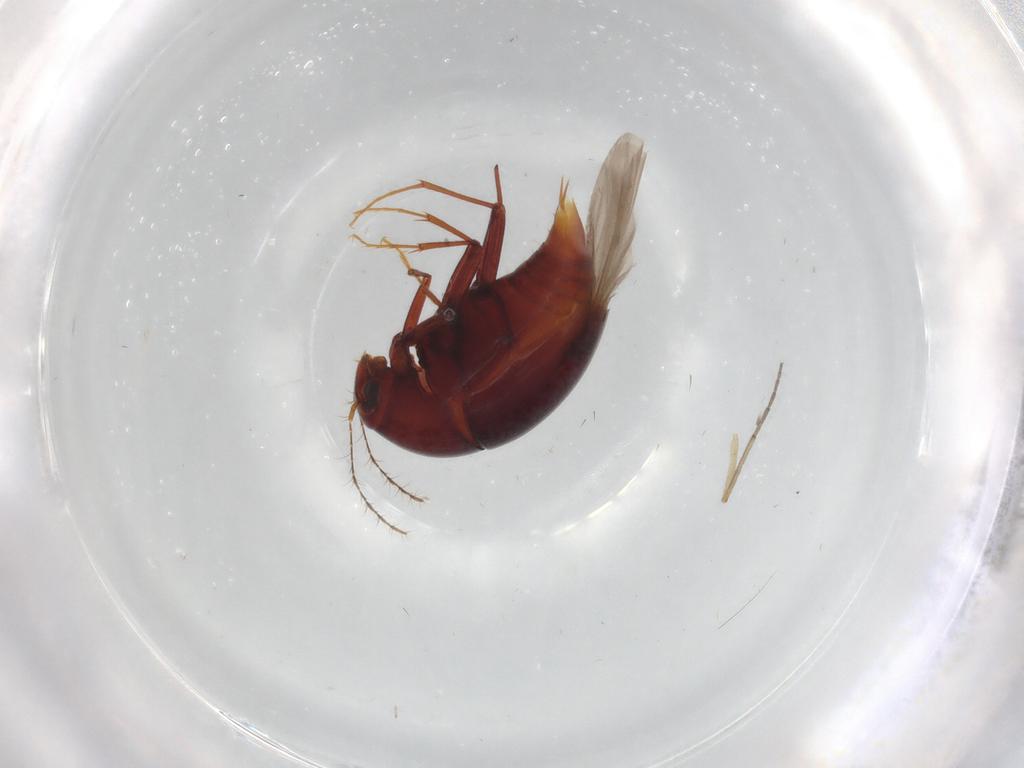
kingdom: Animalia
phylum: Arthropoda
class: Insecta
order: Coleoptera
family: Staphylinidae
